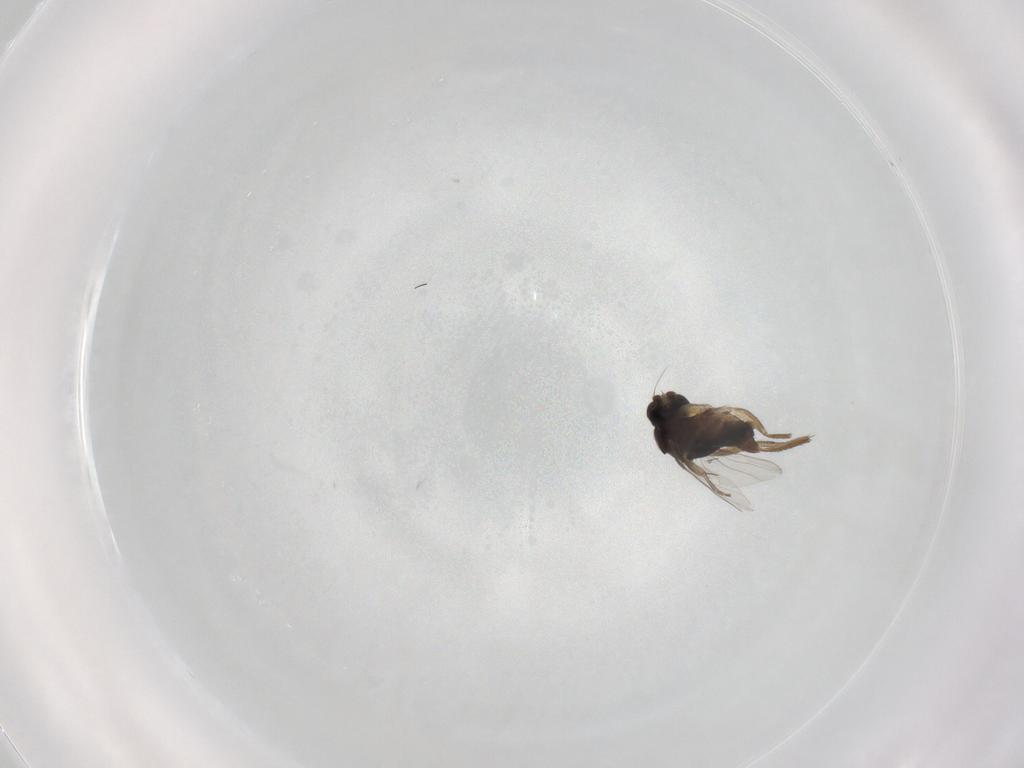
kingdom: Animalia
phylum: Arthropoda
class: Insecta
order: Diptera
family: Phoridae
